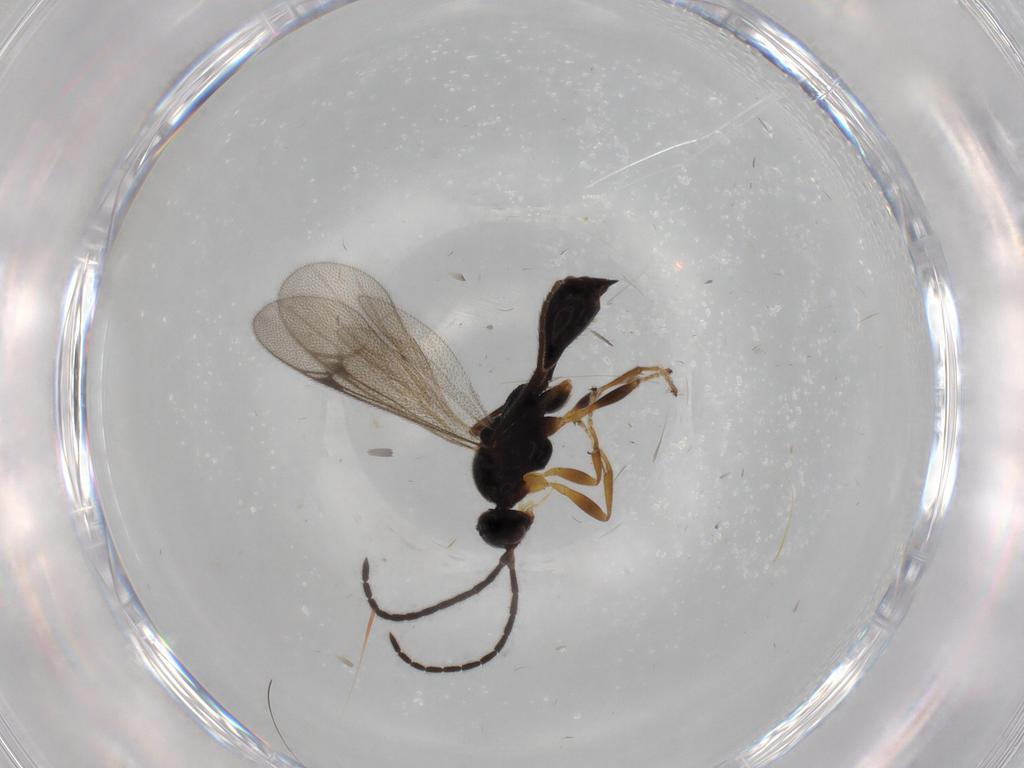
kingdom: Animalia
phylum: Arthropoda
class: Insecta
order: Hymenoptera
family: Proctotrupidae
